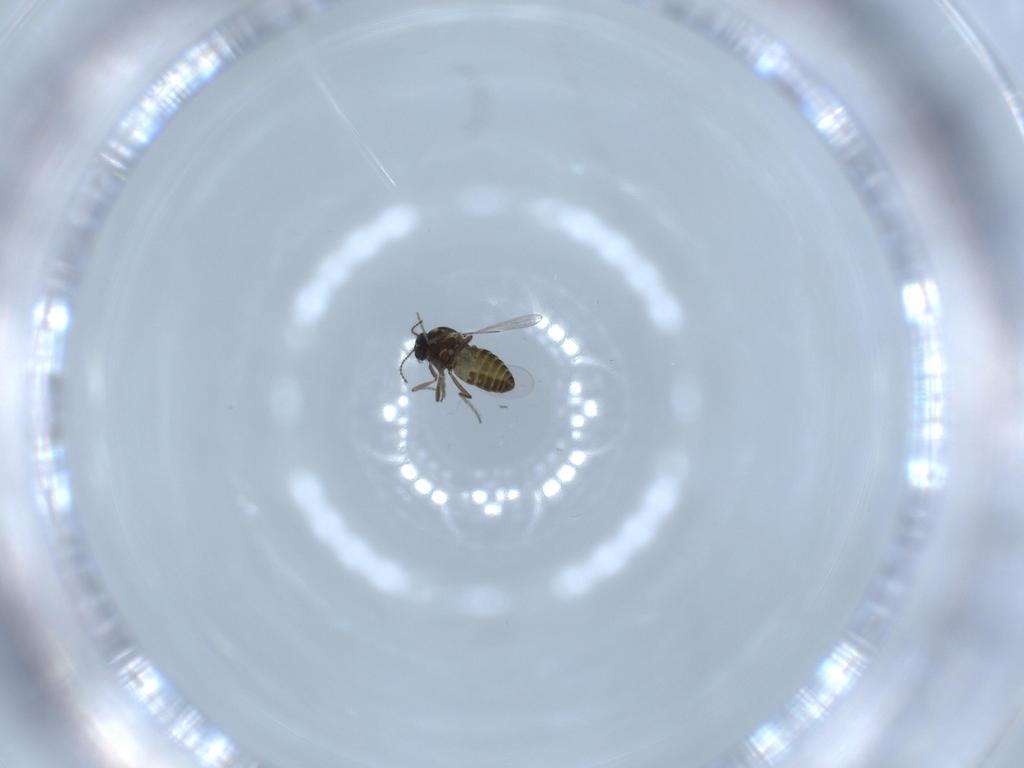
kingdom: Animalia
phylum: Arthropoda
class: Insecta
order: Diptera
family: Ceratopogonidae
